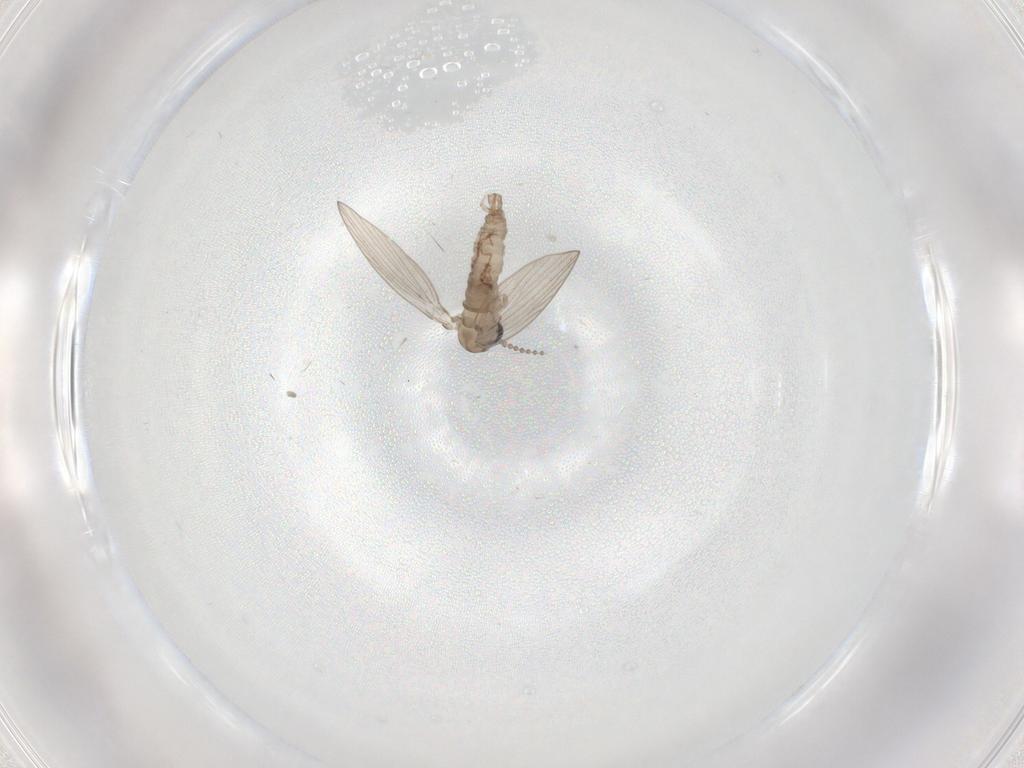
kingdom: Animalia
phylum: Arthropoda
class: Insecta
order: Diptera
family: Psychodidae
